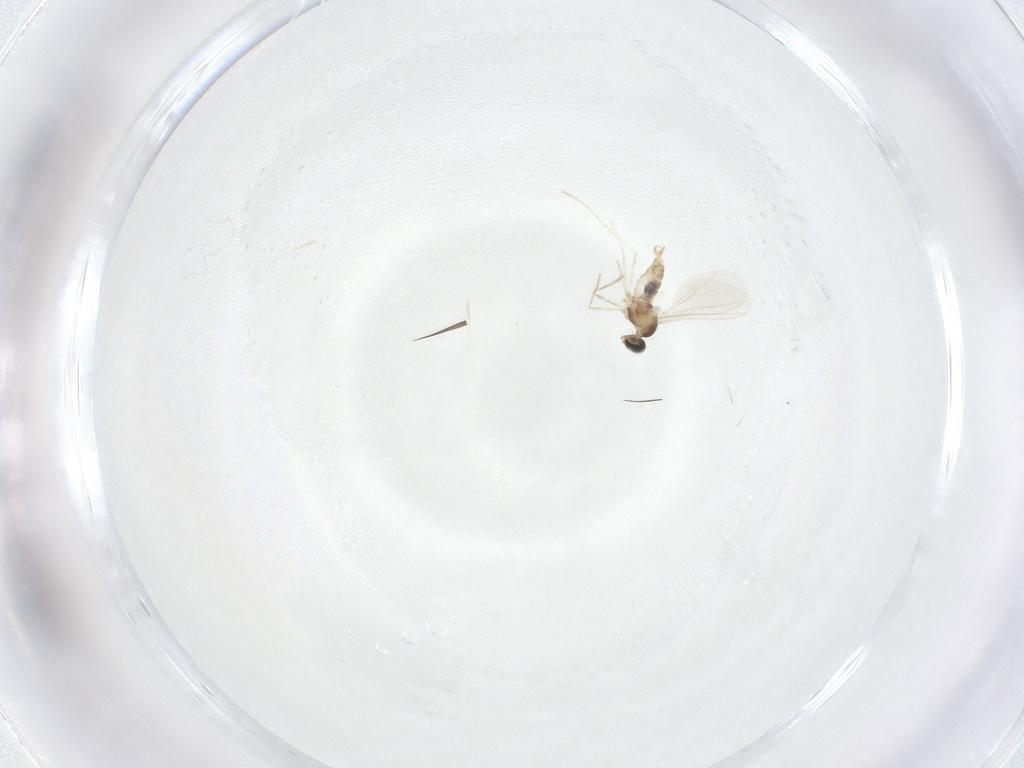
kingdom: Animalia
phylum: Arthropoda
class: Insecta
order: Diptera
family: Cecidomyiidae
